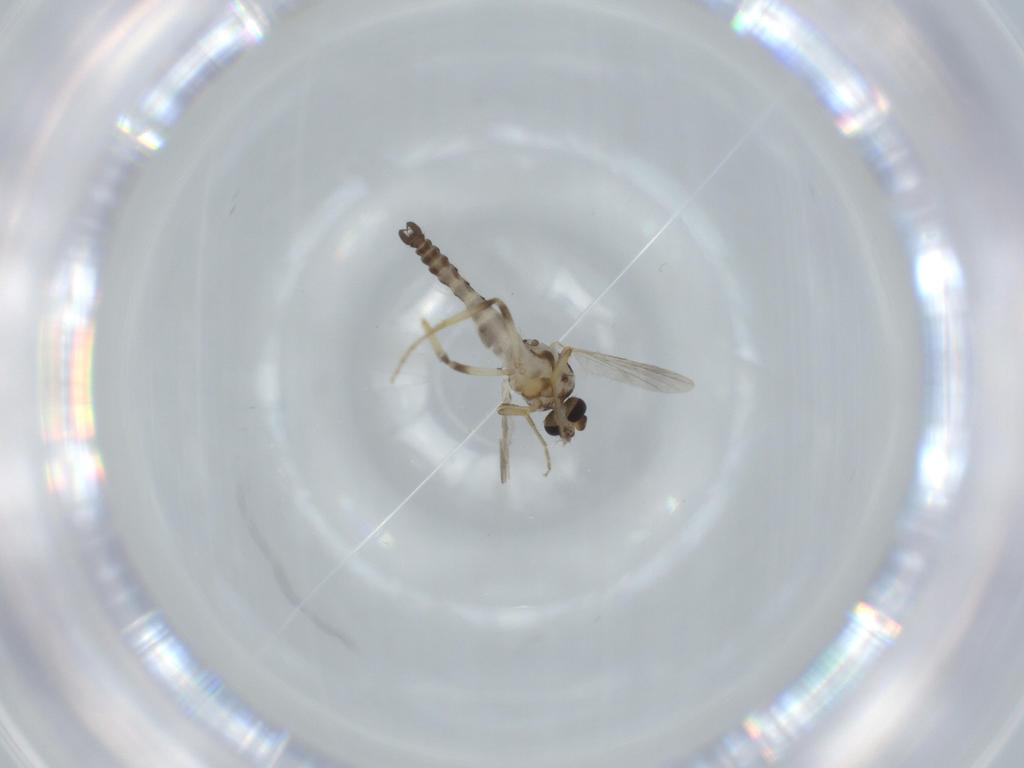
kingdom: Animalia
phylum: Arthropoda
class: Insecta
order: Diptera
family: Ceratopogonidae
